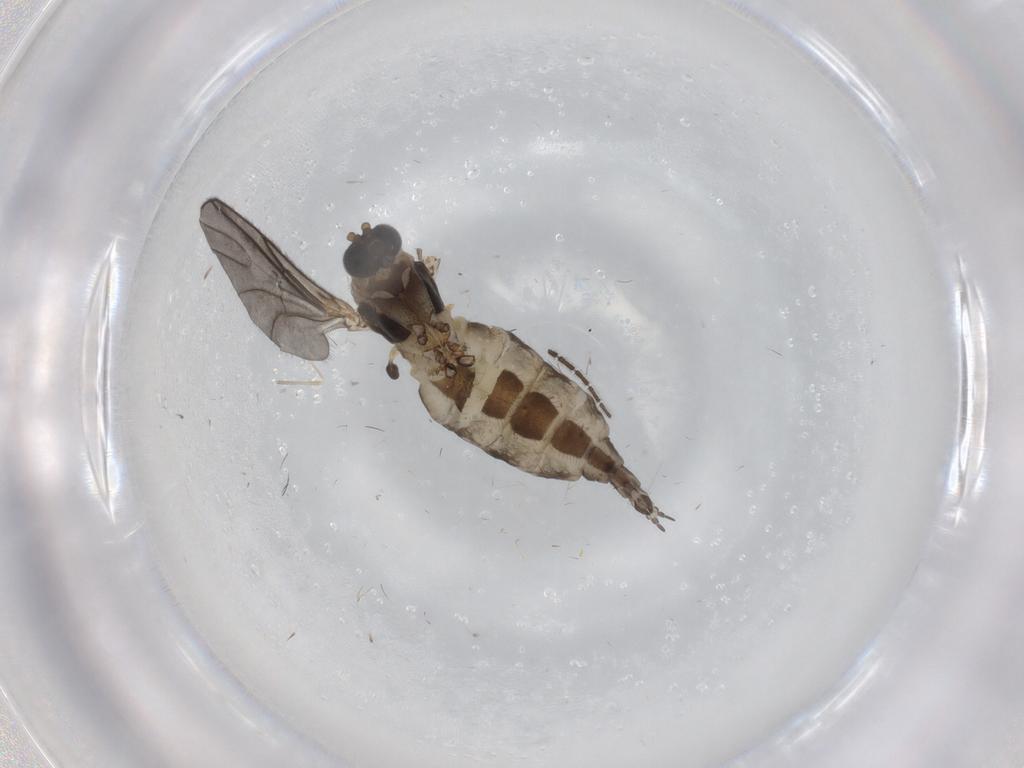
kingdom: Animalia
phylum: Arthropoda
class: Insecta
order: Diptera
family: Sciaridae
